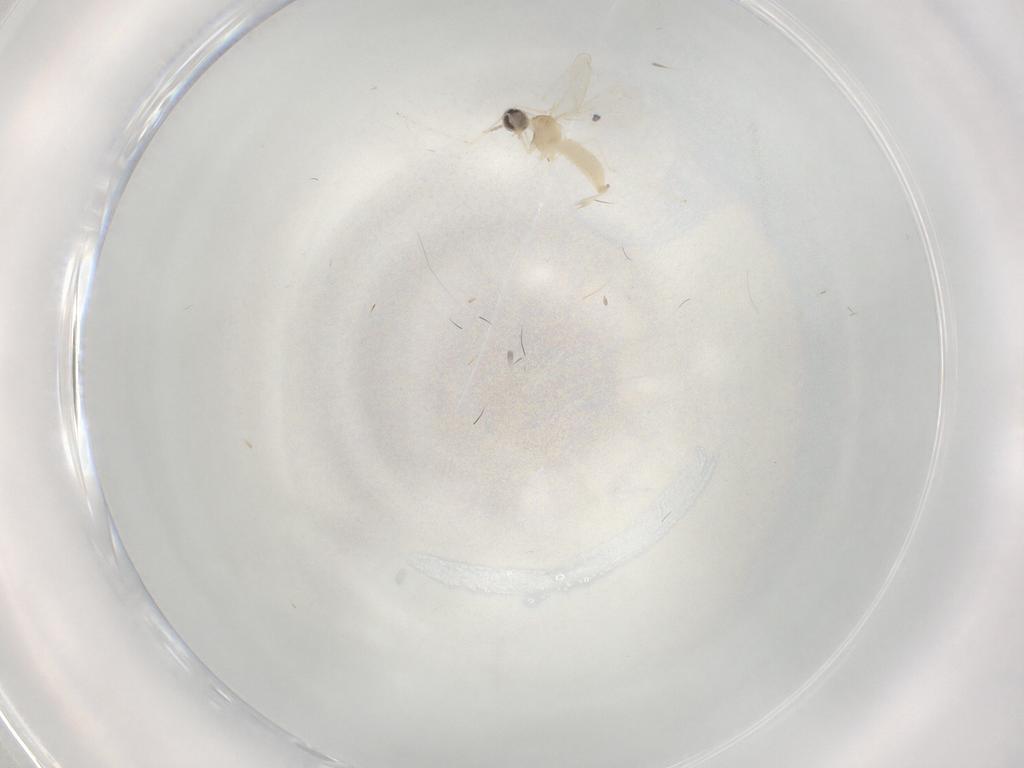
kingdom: Animalia
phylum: Arthropoda
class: Insecta
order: Diptera
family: Cecidomyiidae
